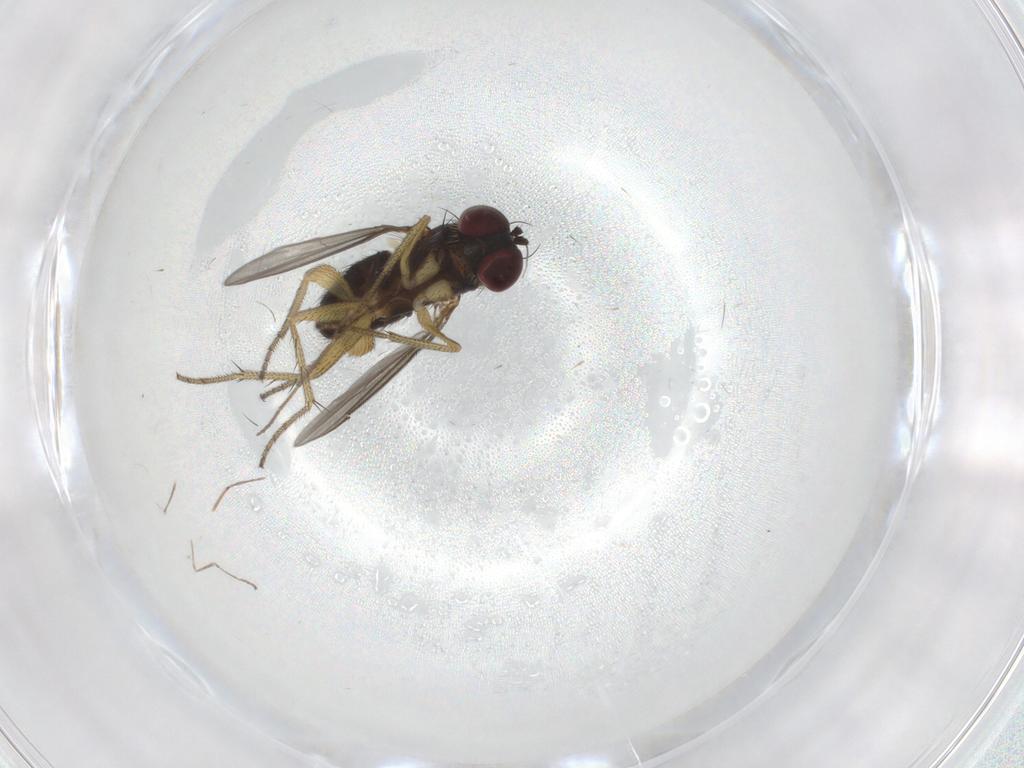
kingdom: Animalia
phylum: Arthropoda
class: Insecta
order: Diptera
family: Chironomidae
